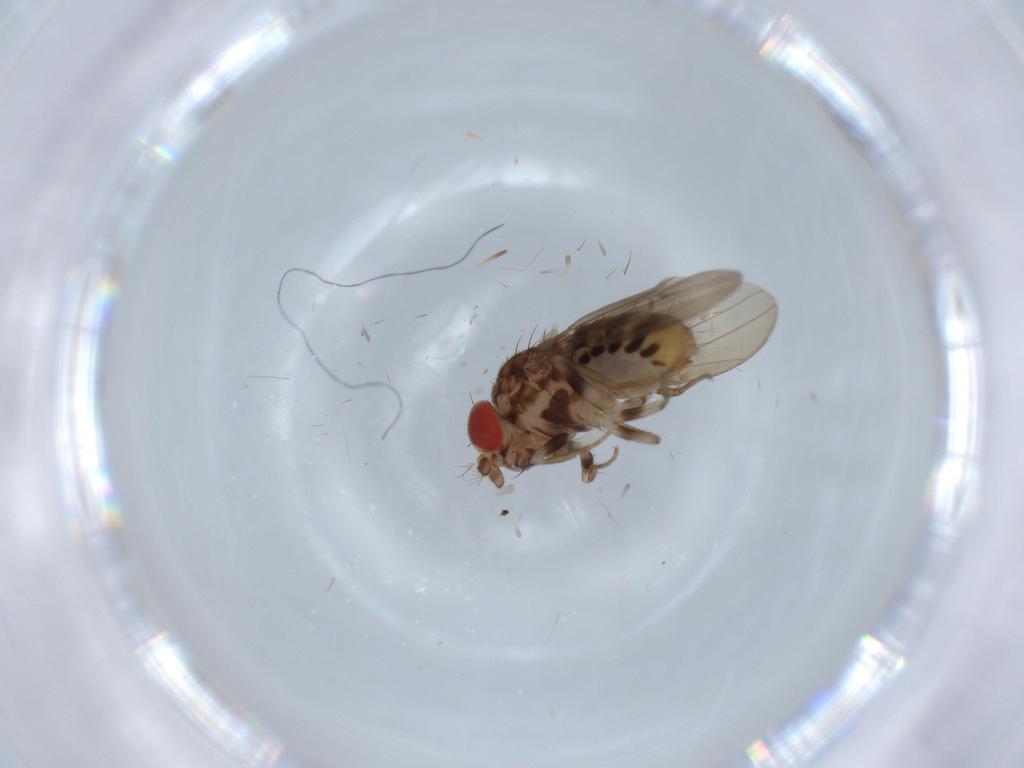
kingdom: Animalia
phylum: Arthropoda
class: Insecta
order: Diptera
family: Drosophilidae
